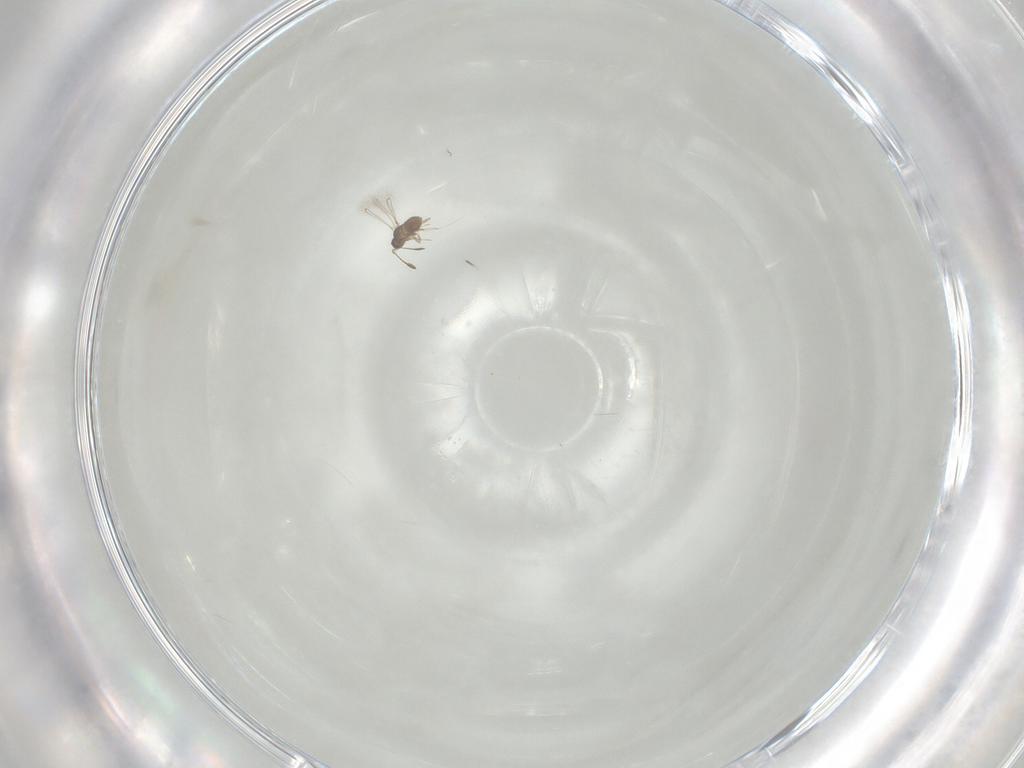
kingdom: Animalia
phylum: Arthropoda
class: Insecta
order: Hymenoptera
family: Mymaridae
